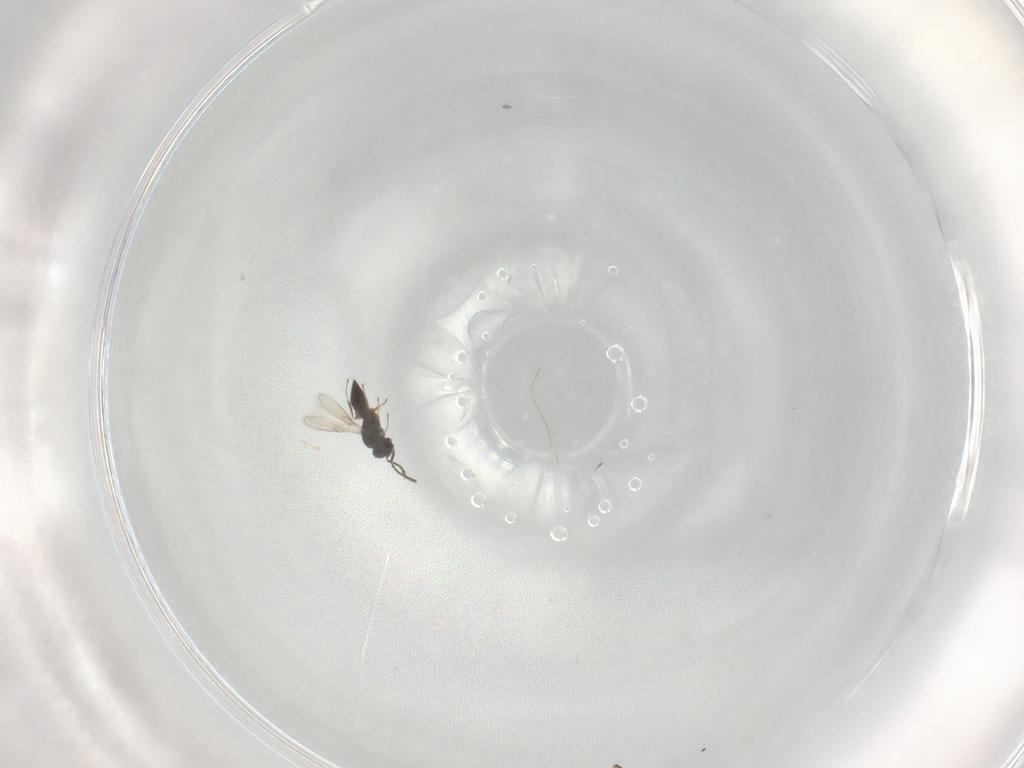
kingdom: Animalia
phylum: Arthropoda
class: Insecta
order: Hymenoptera
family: Scelionidae
